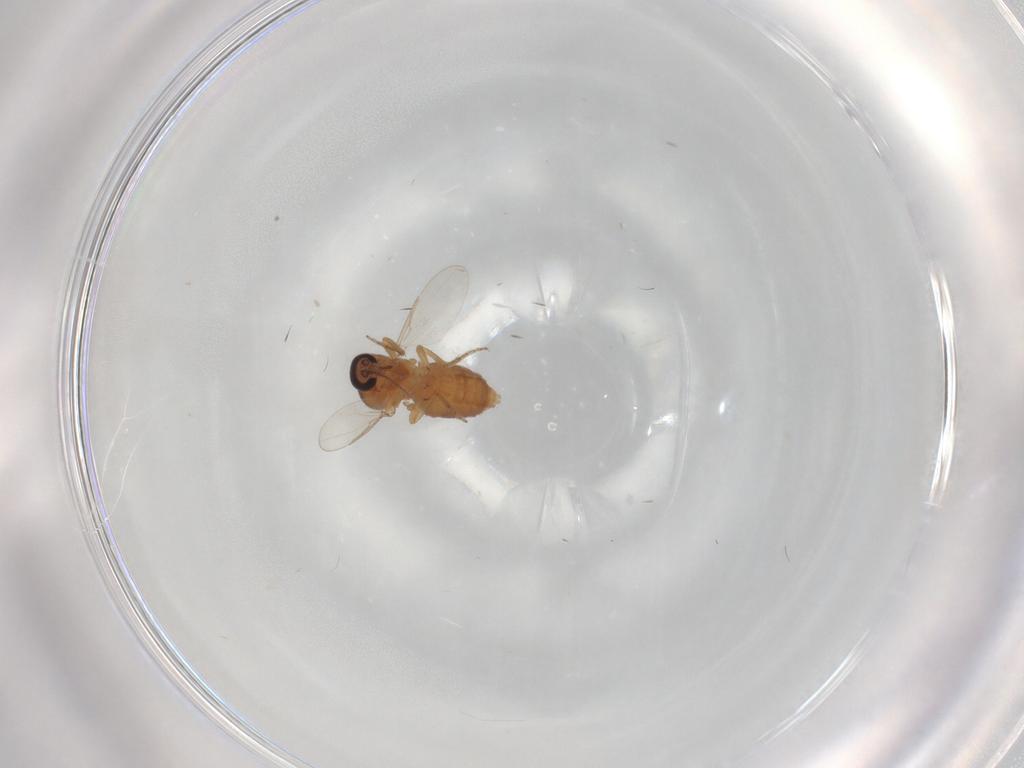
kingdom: Animalia
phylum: Arthropoda
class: Insecta
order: Diptera
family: Ceratopogonidae
